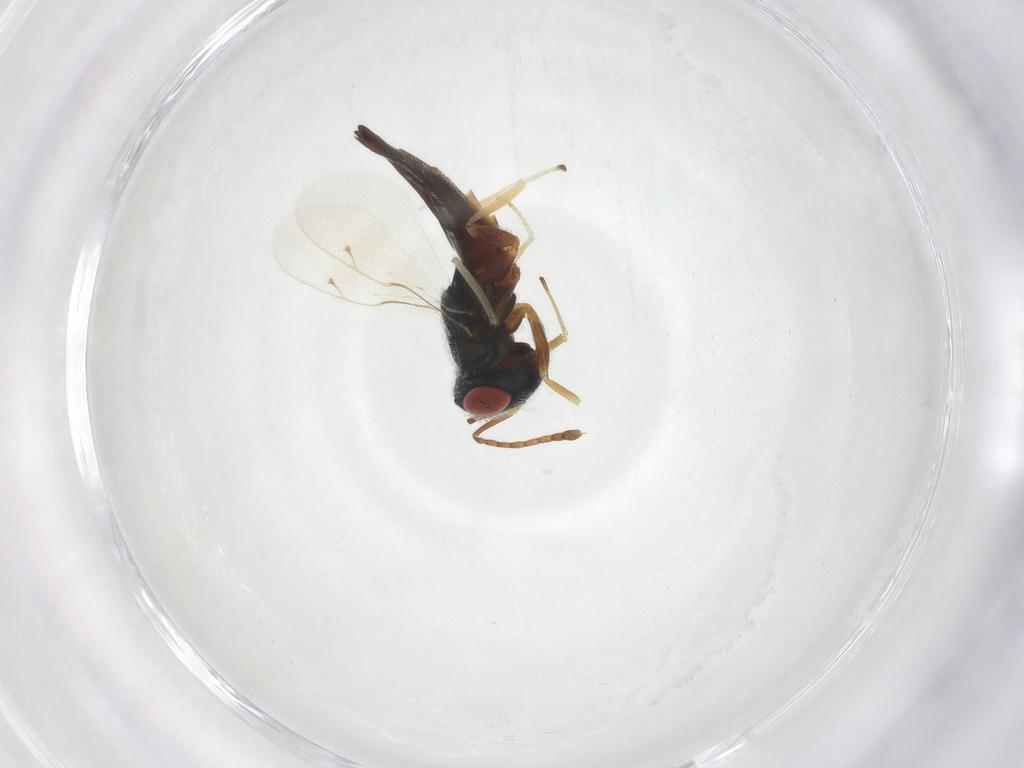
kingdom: Animalia
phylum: Arthropoda
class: Insecta
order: Hymenoptera
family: Pteromalidae
